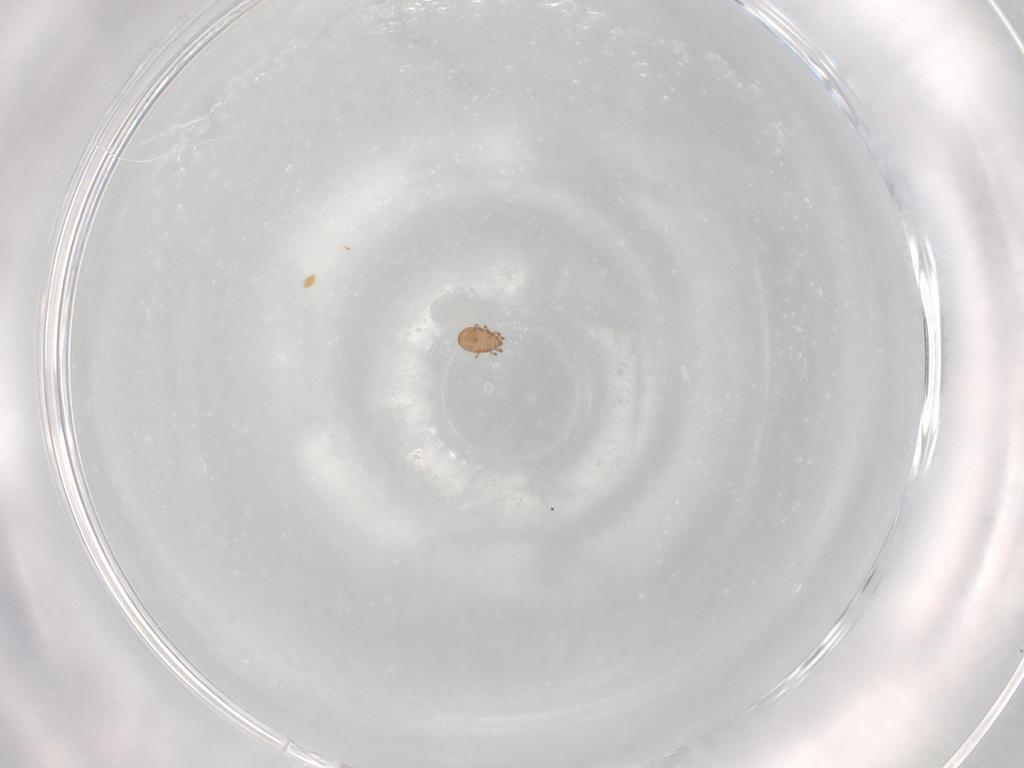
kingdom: Animalia
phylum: Arthropoda
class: Arachnida
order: Sarcoptiformes
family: Eremaeidae
